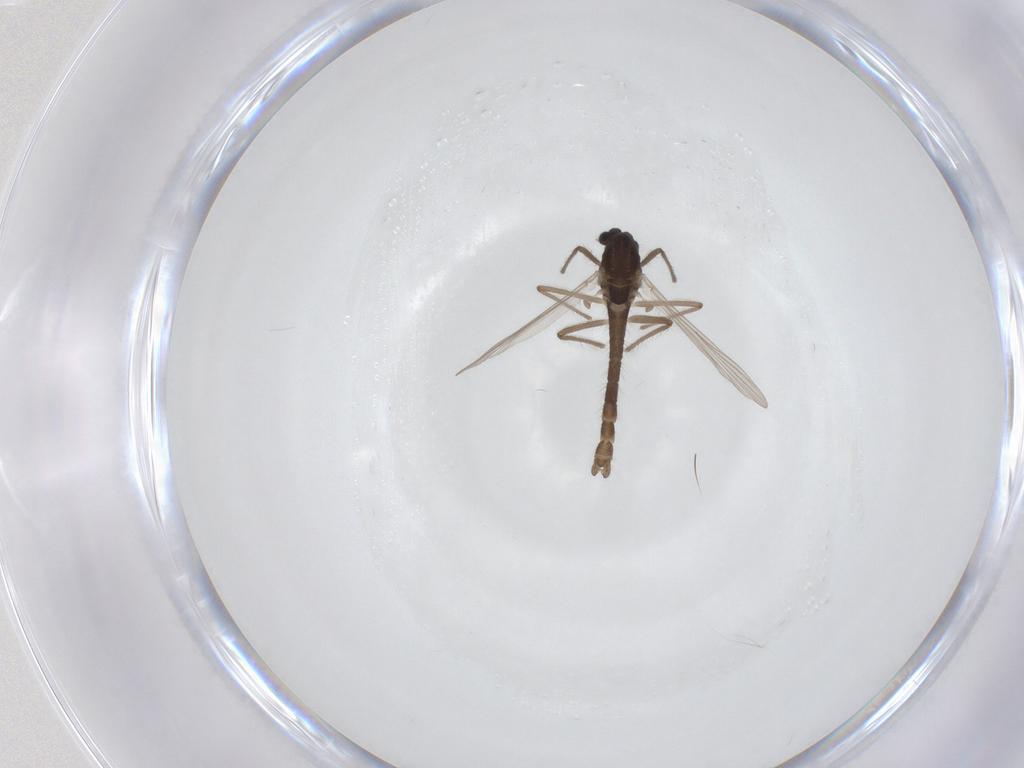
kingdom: Animalia
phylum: Arthropoda
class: Insecta
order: Diptera
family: Chironomidae
